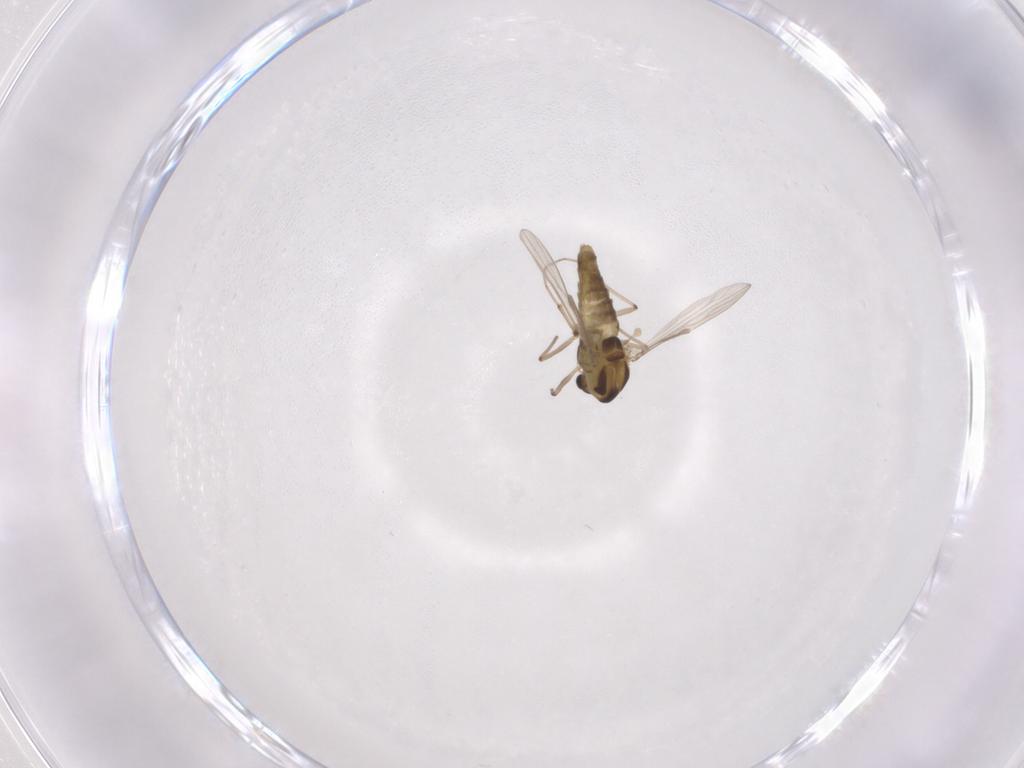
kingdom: Animalia
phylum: Arthropoda
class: Insecta
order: Diptera
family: Chironomidae
